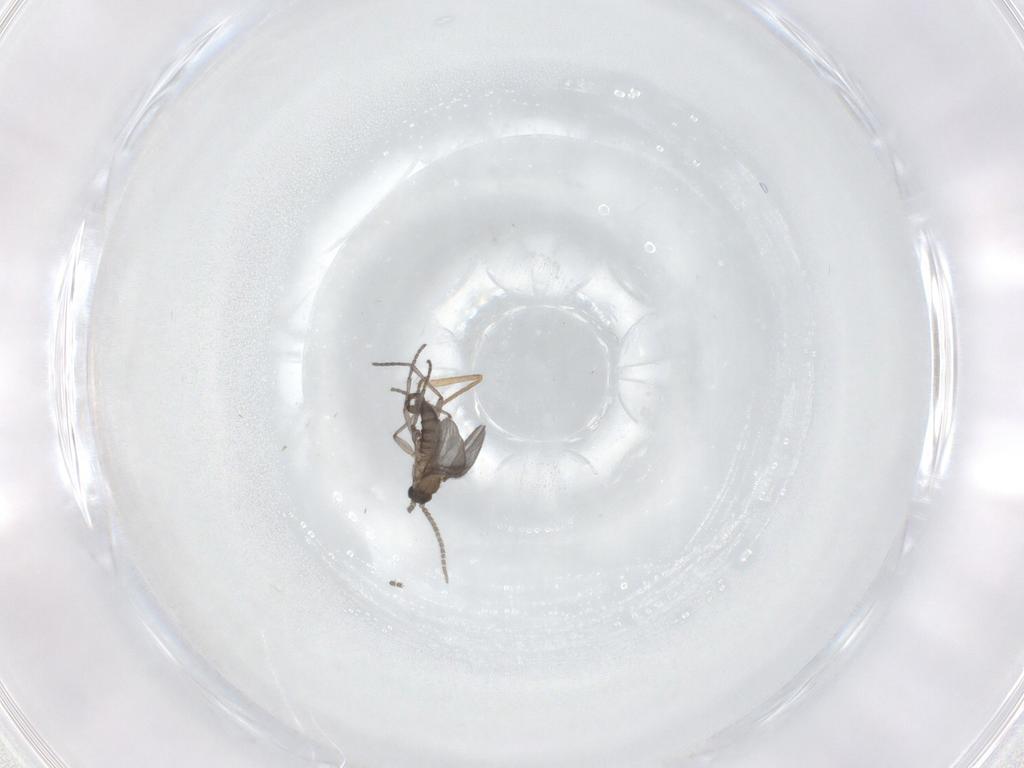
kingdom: Animalia
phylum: Arthropoda
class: Insecta
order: Diptera
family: Sciaridae
